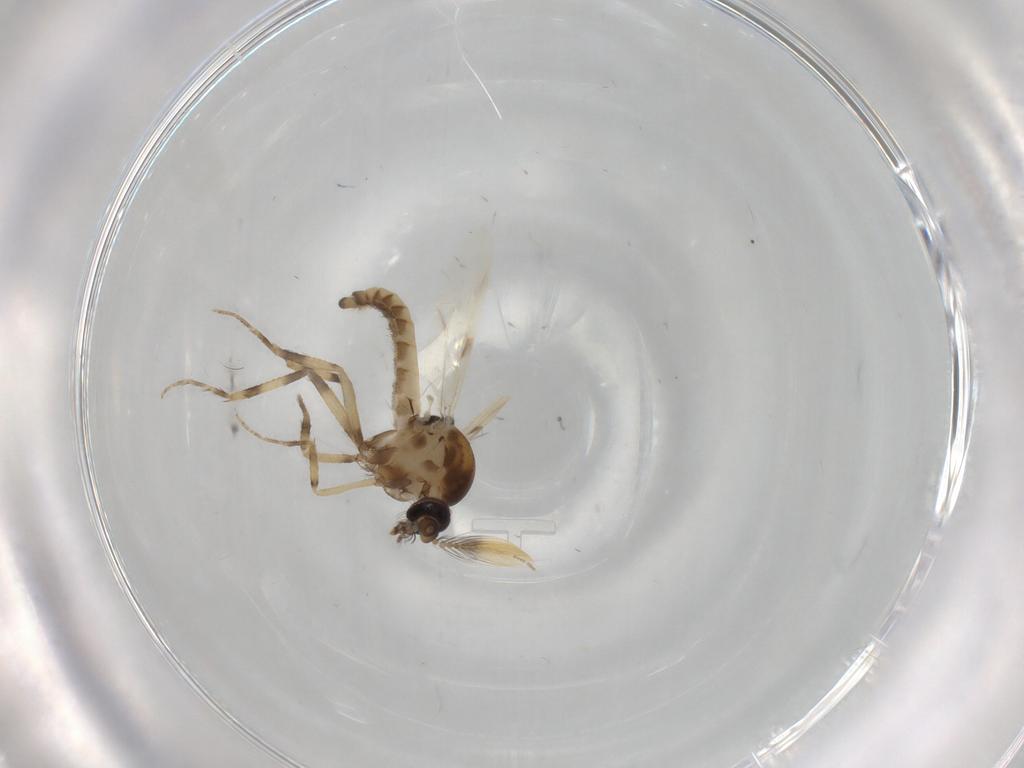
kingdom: Animalia
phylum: Arthropoda
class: Insecta
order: Diptera
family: Ceratopogonidae
